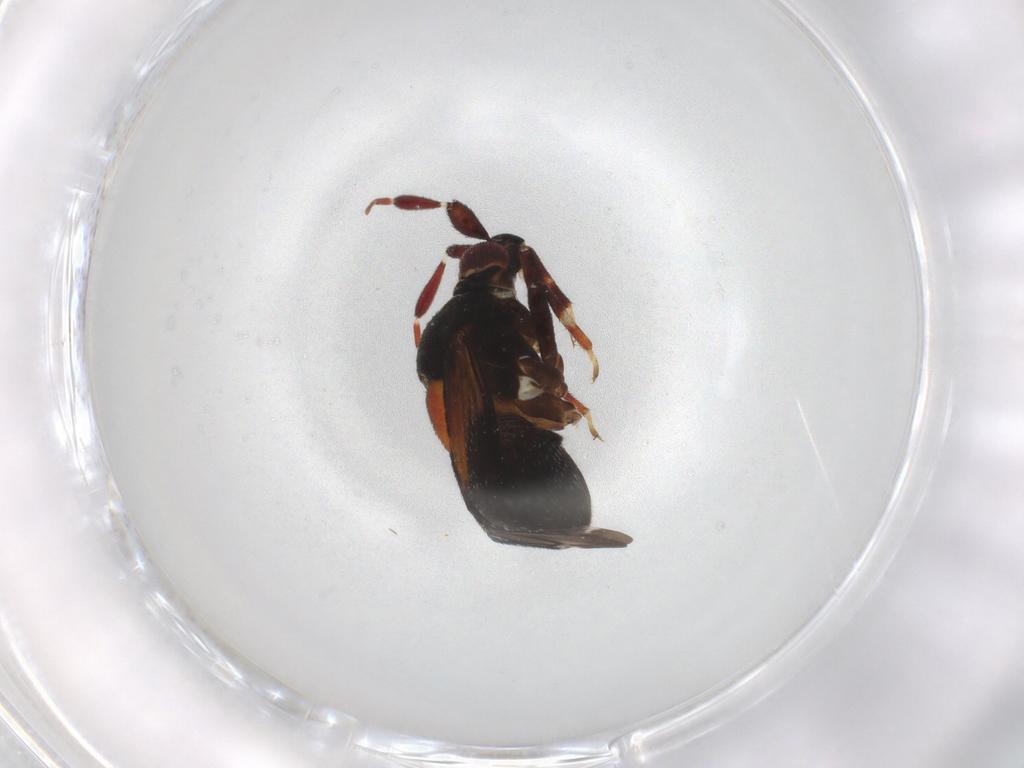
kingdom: Animalia
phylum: Arthropoda
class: Insecta
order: Hemiptera
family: Miridae
